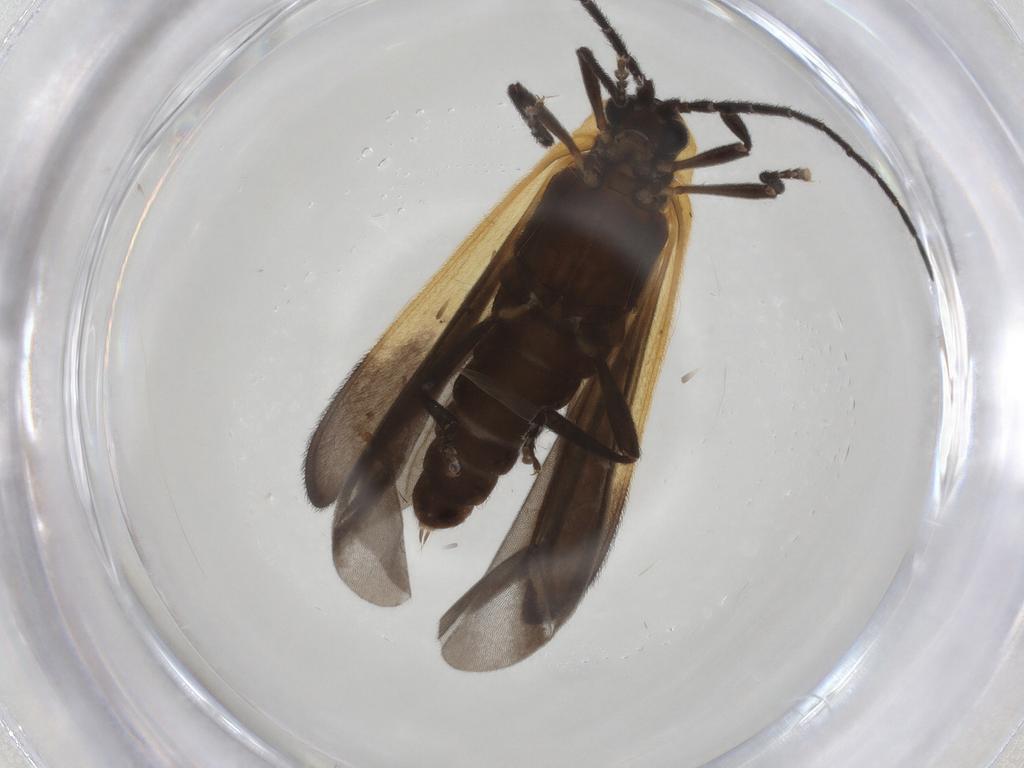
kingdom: Animalia
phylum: Arthropoda
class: Insecta
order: Coleoptera
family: Lycidae
